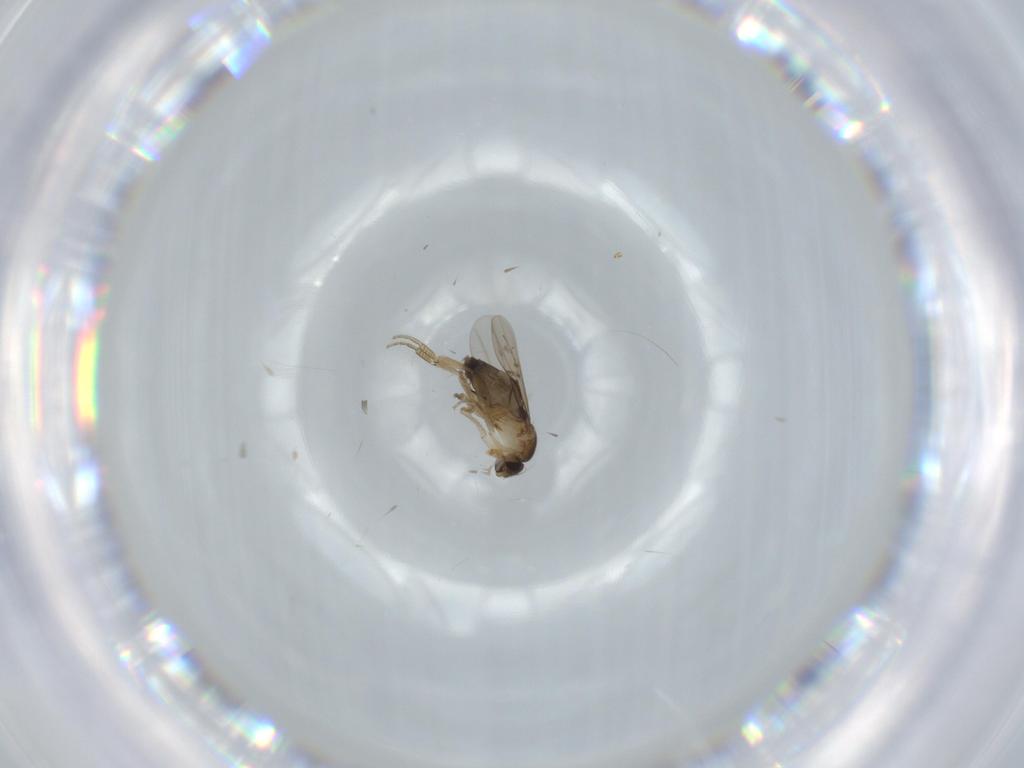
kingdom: Animalia
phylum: Arthropoda
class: Insecta
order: Diptera
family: Phoridae
